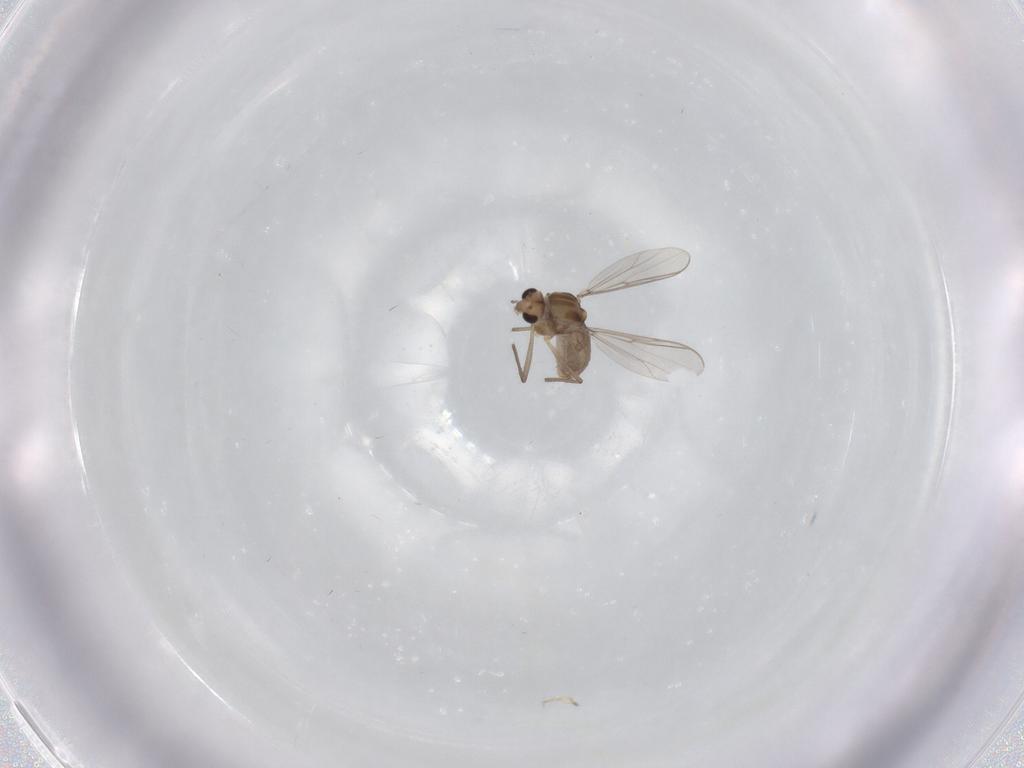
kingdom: Animalia
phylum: Arthropoda
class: Insecta
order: Diptera
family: Chironomidae
